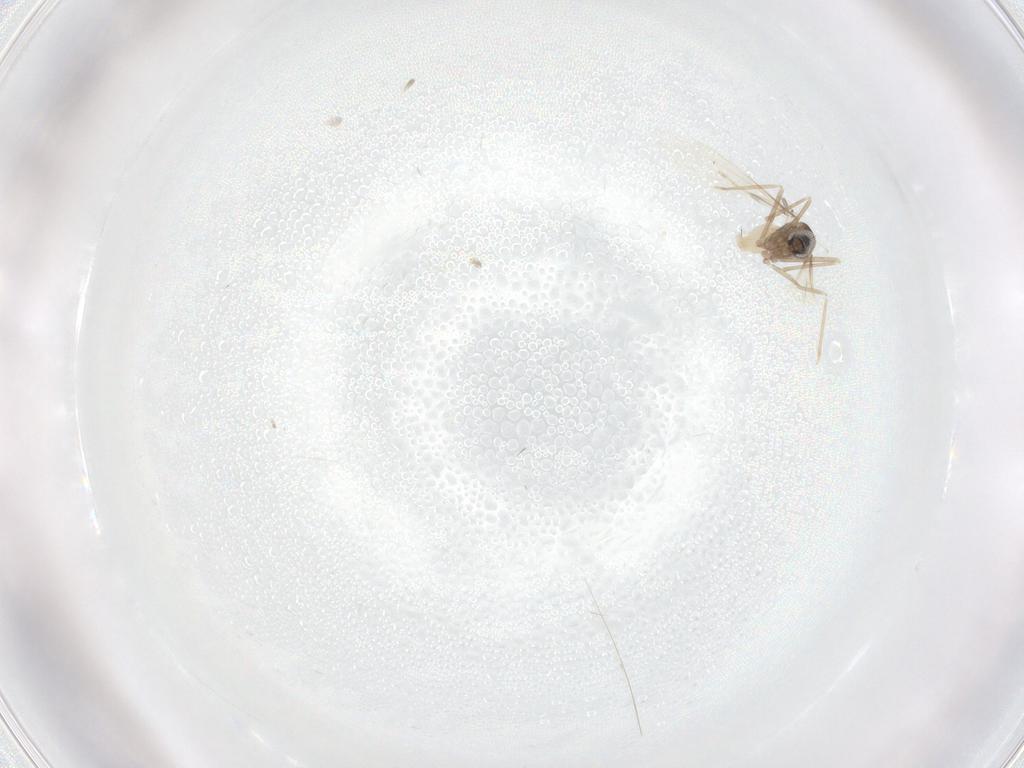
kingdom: Animalia
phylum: Arthropoda
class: Insecta
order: Diptera
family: Cecidomyiidae
